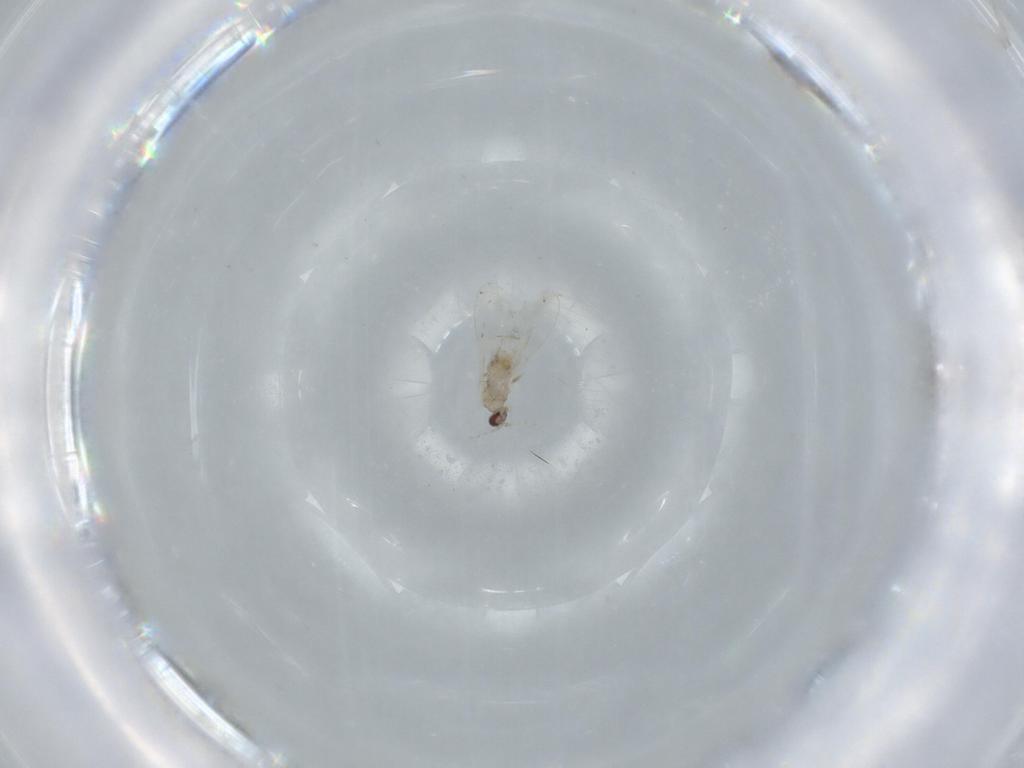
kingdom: Animalia
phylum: Arthropoda
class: Insecta
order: Diptera
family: Cecidomyiidae
